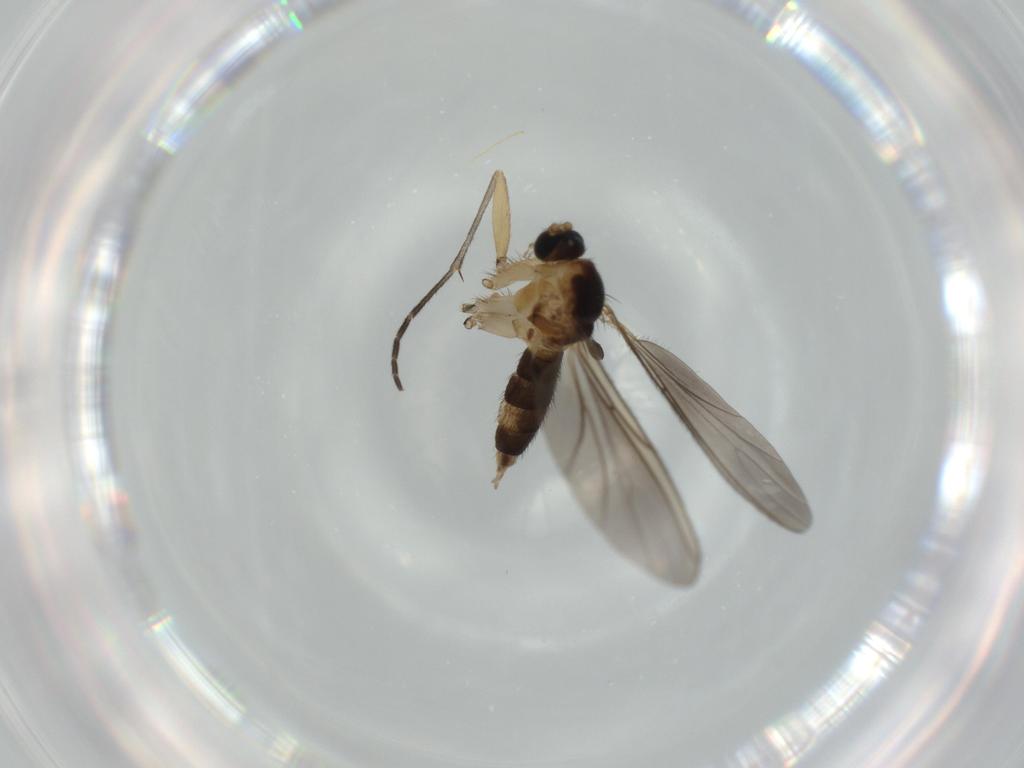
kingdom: Animalia
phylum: Arthropoda
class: Insecta
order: Diptera
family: Sciaridae
